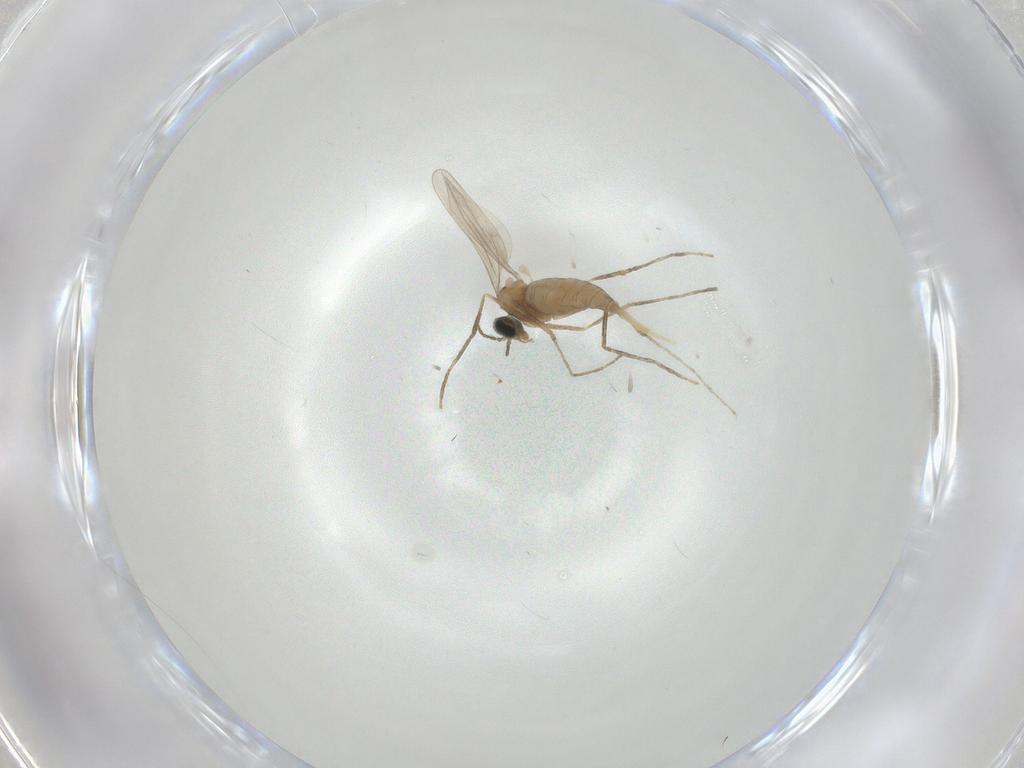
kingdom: Animalia
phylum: Arthropoda
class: Insecta
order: Diptera
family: Cecidomyiidae
